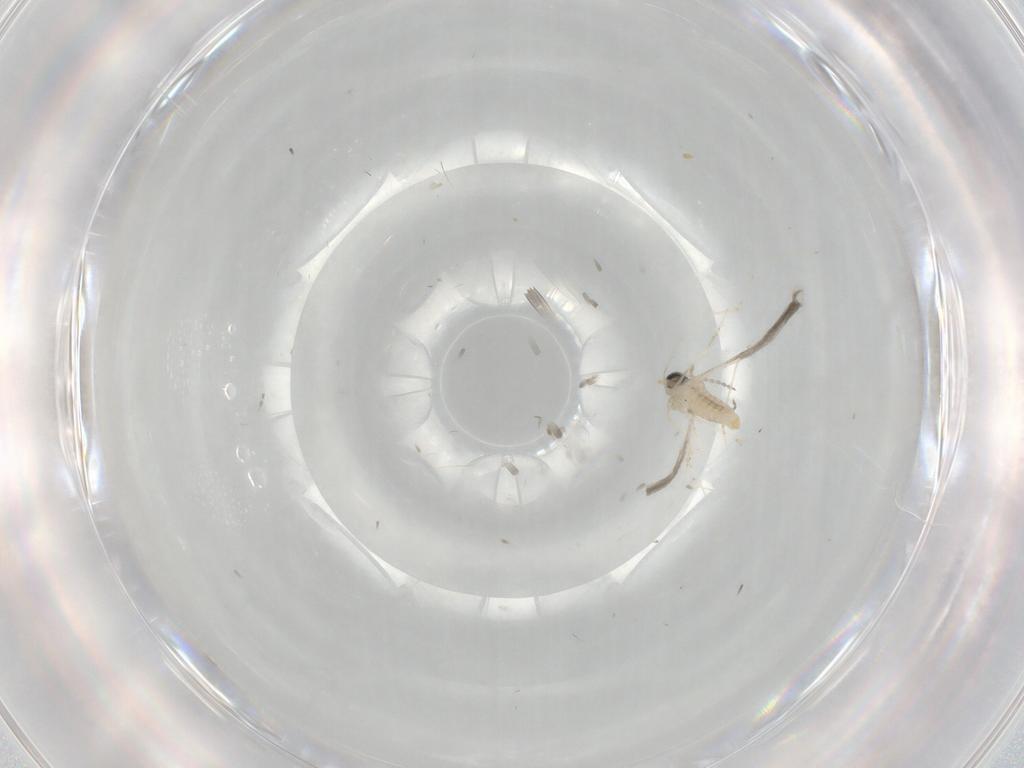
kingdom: Animalia
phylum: Arthropoda
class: Insecta
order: Diptera
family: Cecidomyiidae
